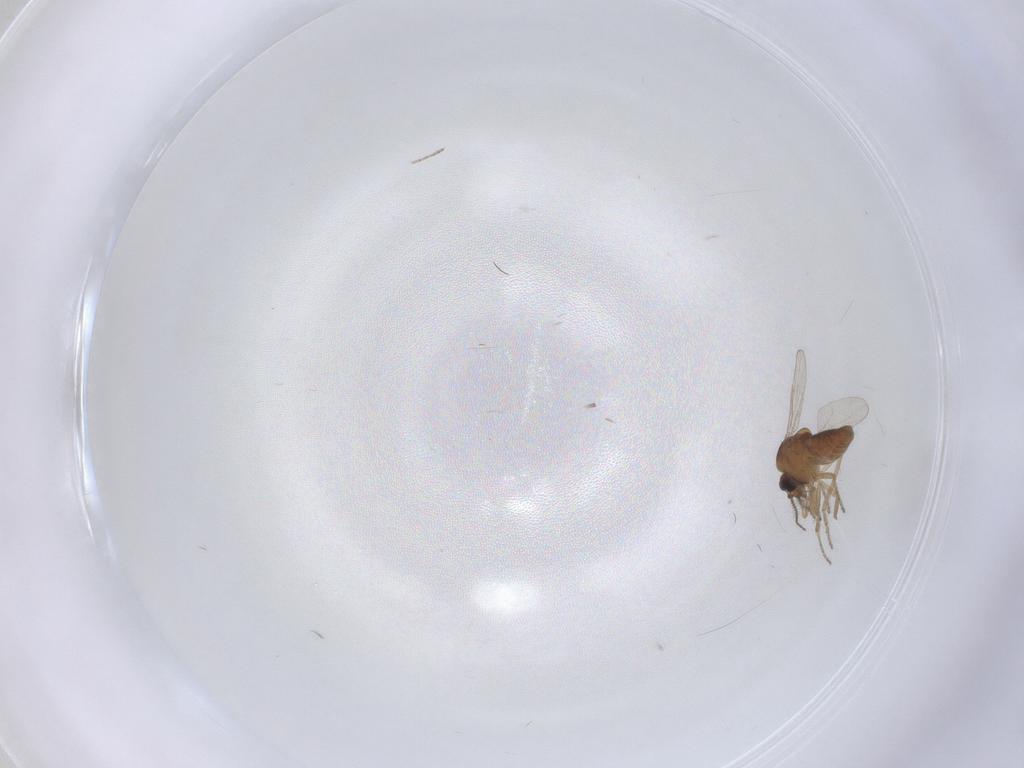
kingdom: Animalia
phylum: Arthropoda
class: Insecta
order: Diptera
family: Ceratopogonidae
